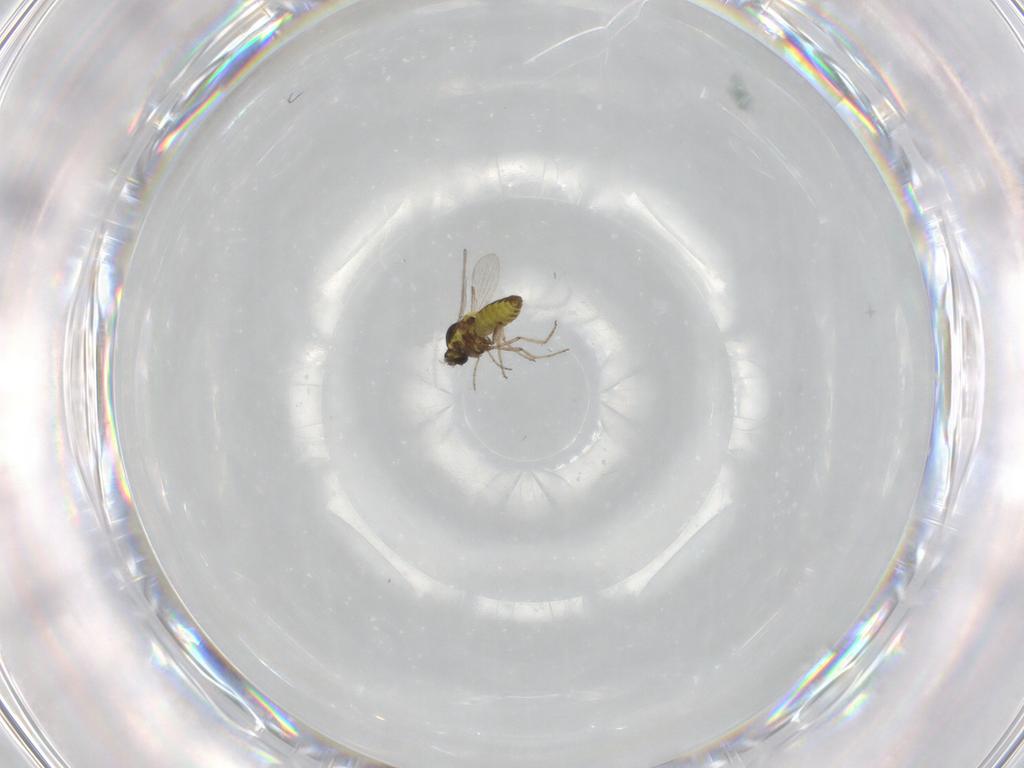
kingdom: Animalia
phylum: Arthropoda
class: Insecta
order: Diptera
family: Ceratopogonidae
